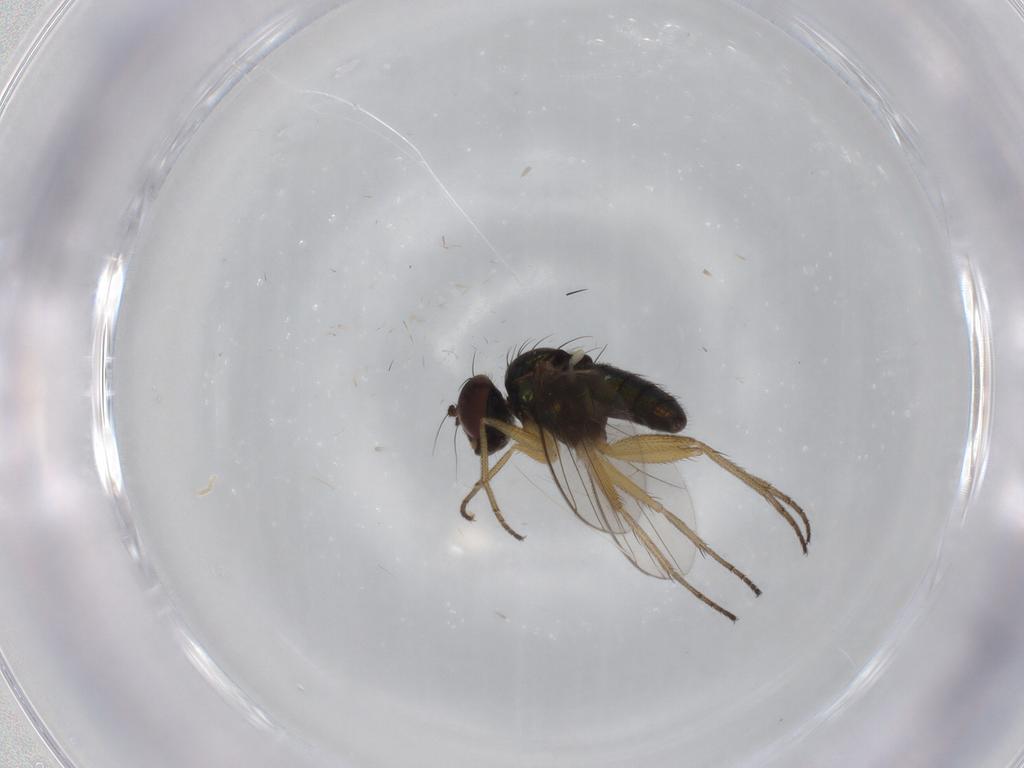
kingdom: Animalia
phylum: Arthropoda
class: Insecta
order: Diptera
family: Dolichopodidae
